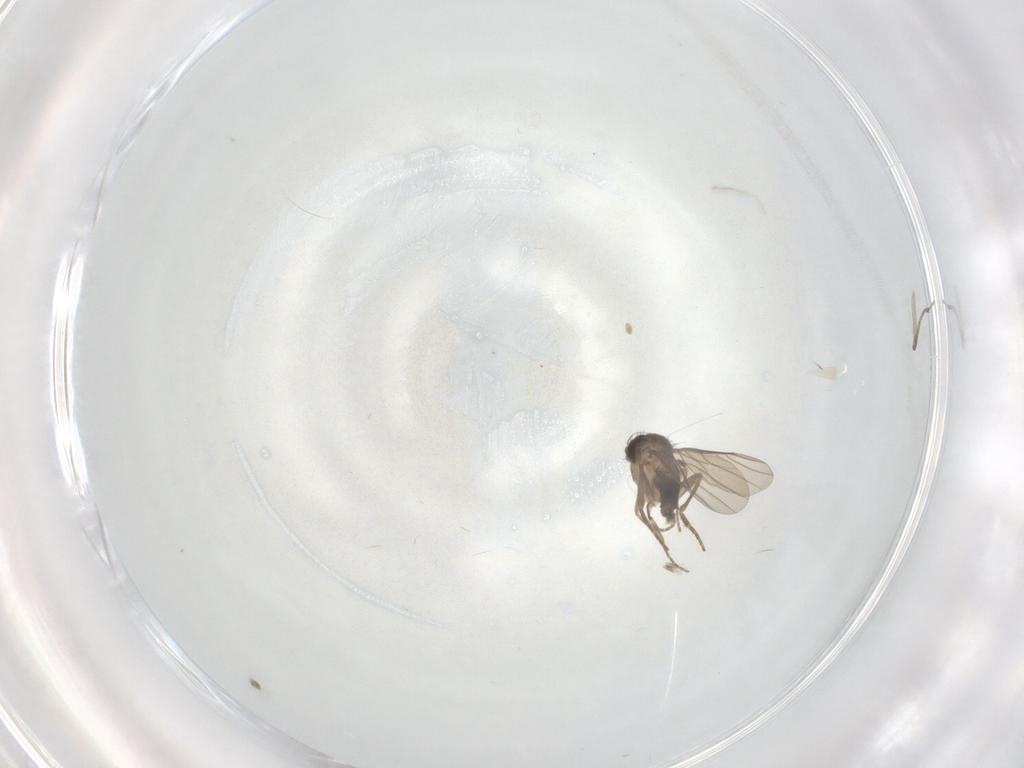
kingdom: Animalia
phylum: Arthropoda
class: Insecta
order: Diptera
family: Phoridae
